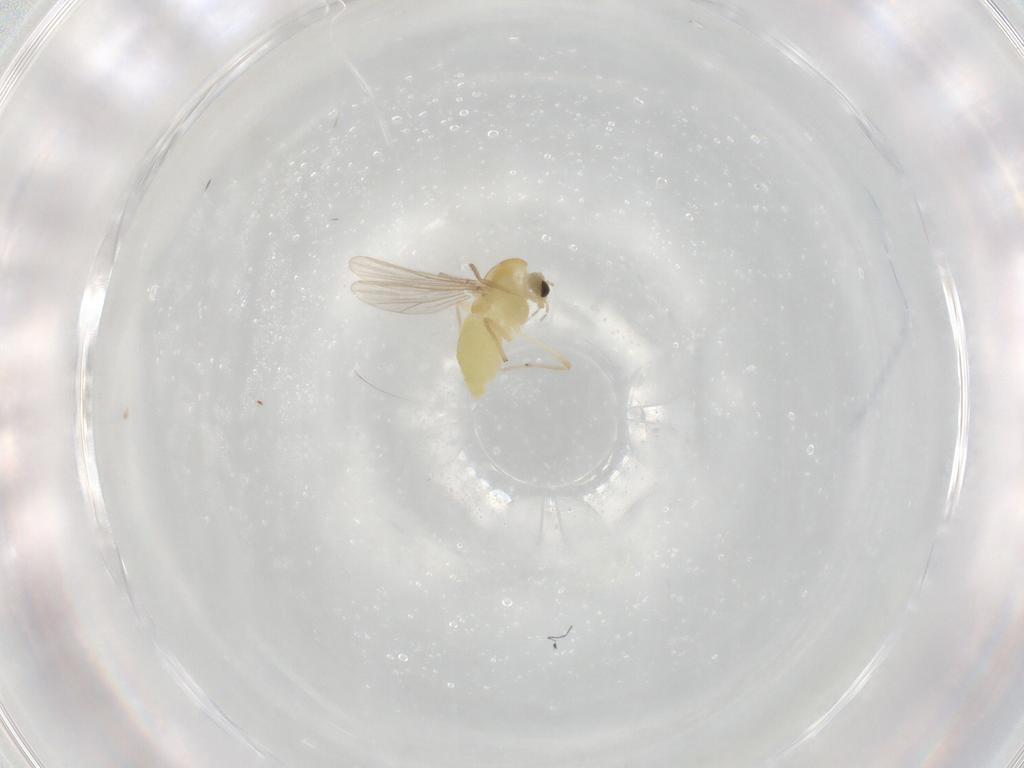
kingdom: Animalia
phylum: Arthropoda
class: Insecta
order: Diptera
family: Chironomidae
